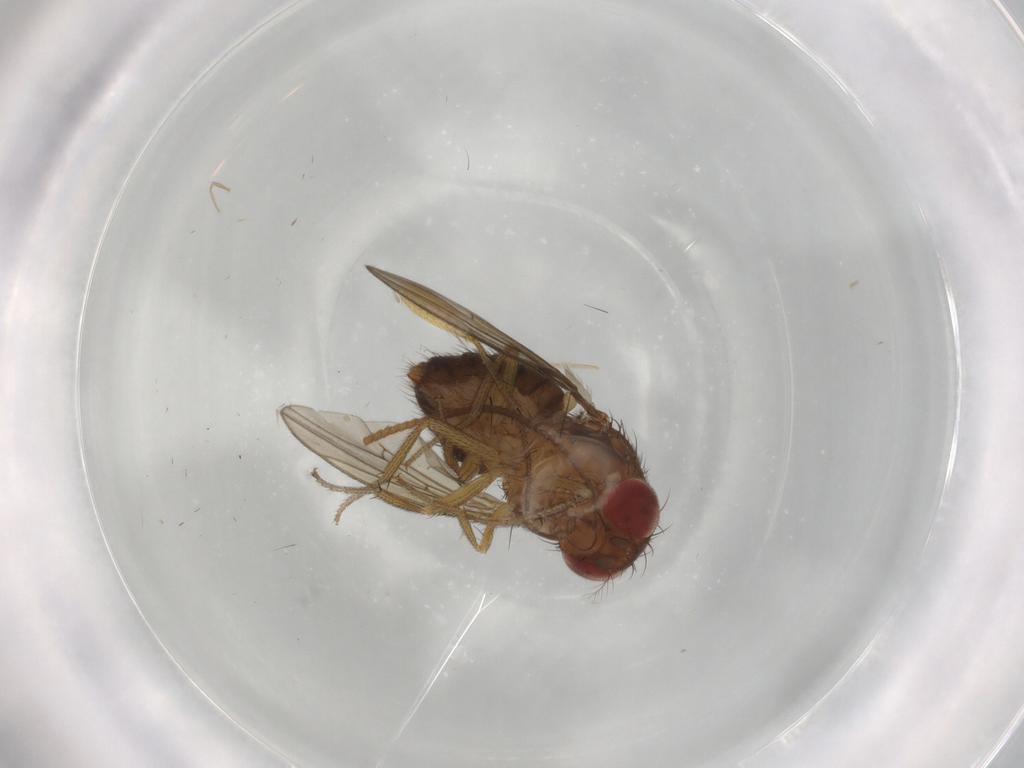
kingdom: Animalia
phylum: Arthropoda
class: Insecta
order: Diptera
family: Drosophilidae
